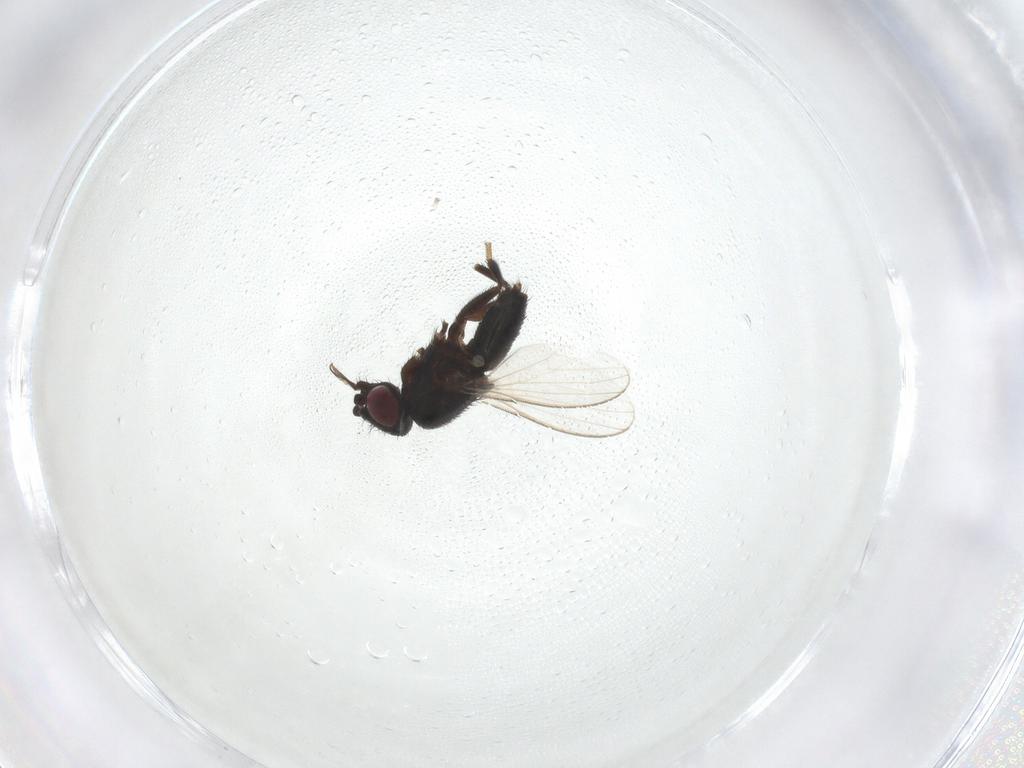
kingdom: Animalia
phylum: Arthropoda
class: Insecta
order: Diptera
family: Milichiidae
